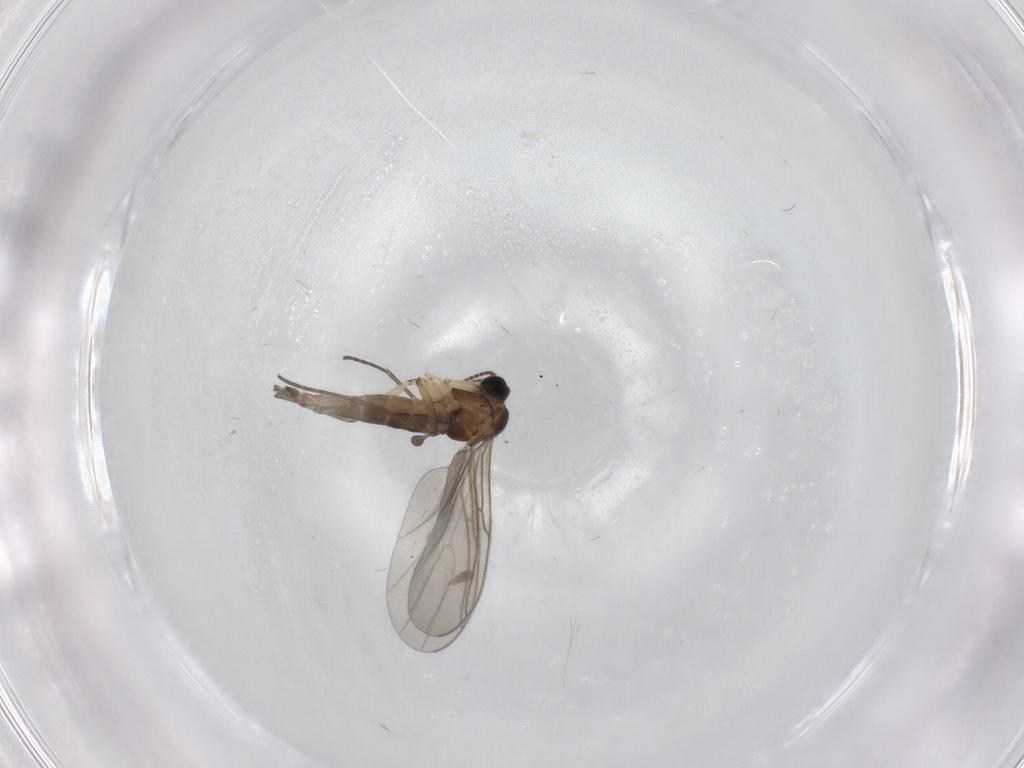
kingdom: Animalia
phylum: Arthropoda
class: Insecta
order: Diptera
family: Sciaridae
